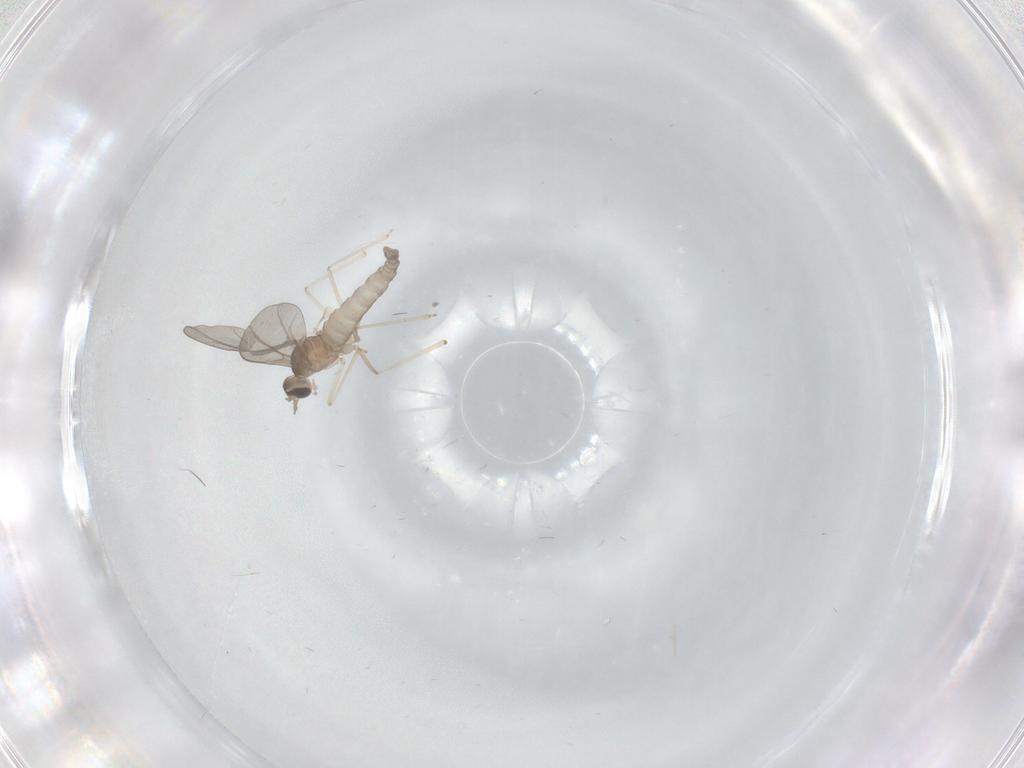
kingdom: Animalia
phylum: Arthropoda
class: Insecta
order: Diptera
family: Cecidomyiidae
